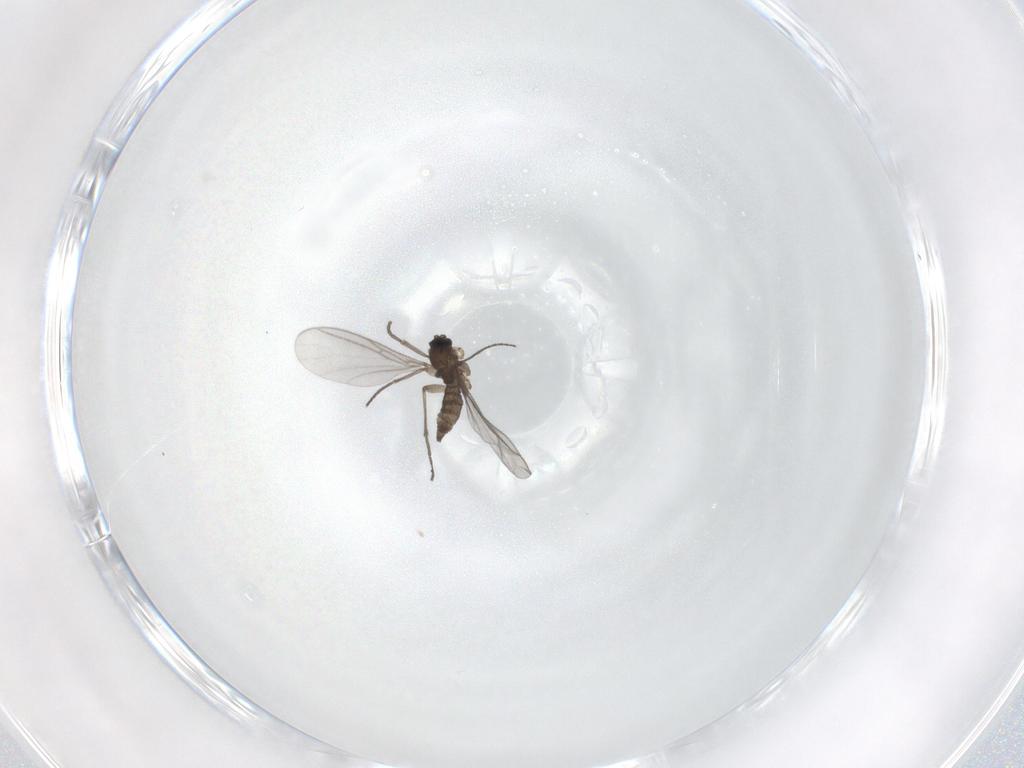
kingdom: Animalia
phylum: Arthropoda
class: Insecta
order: Diptera
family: Sciaridae
